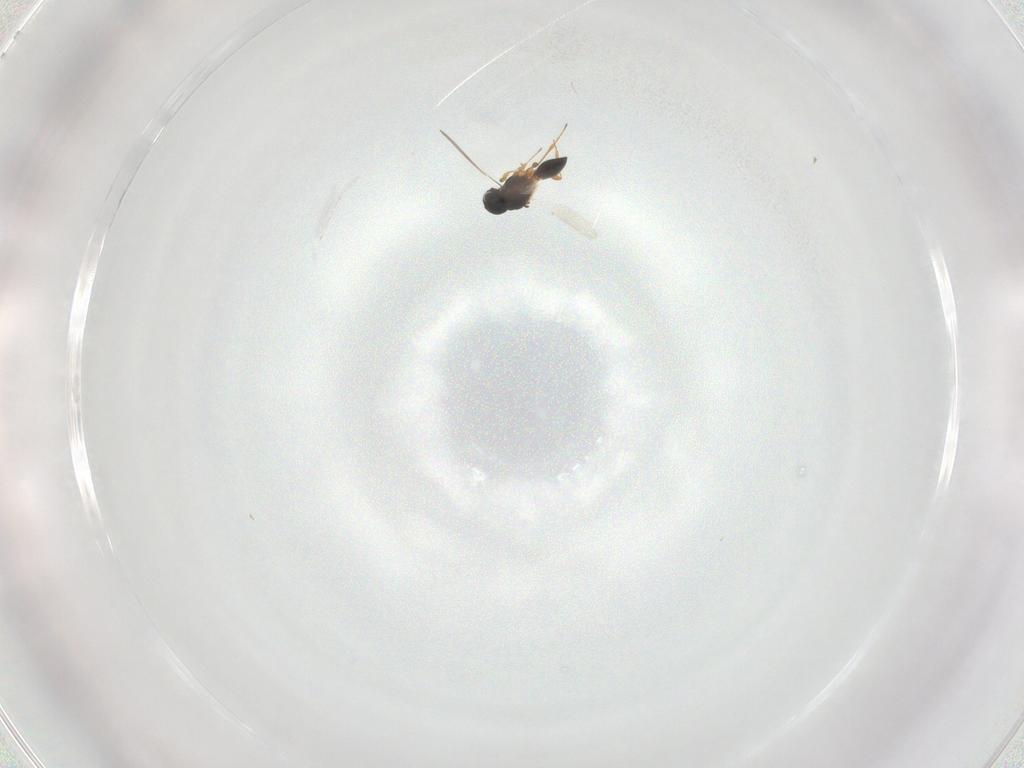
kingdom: Animalia
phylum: Arthropoda
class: Insecta
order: Hymenoptera
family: Platygastridae
